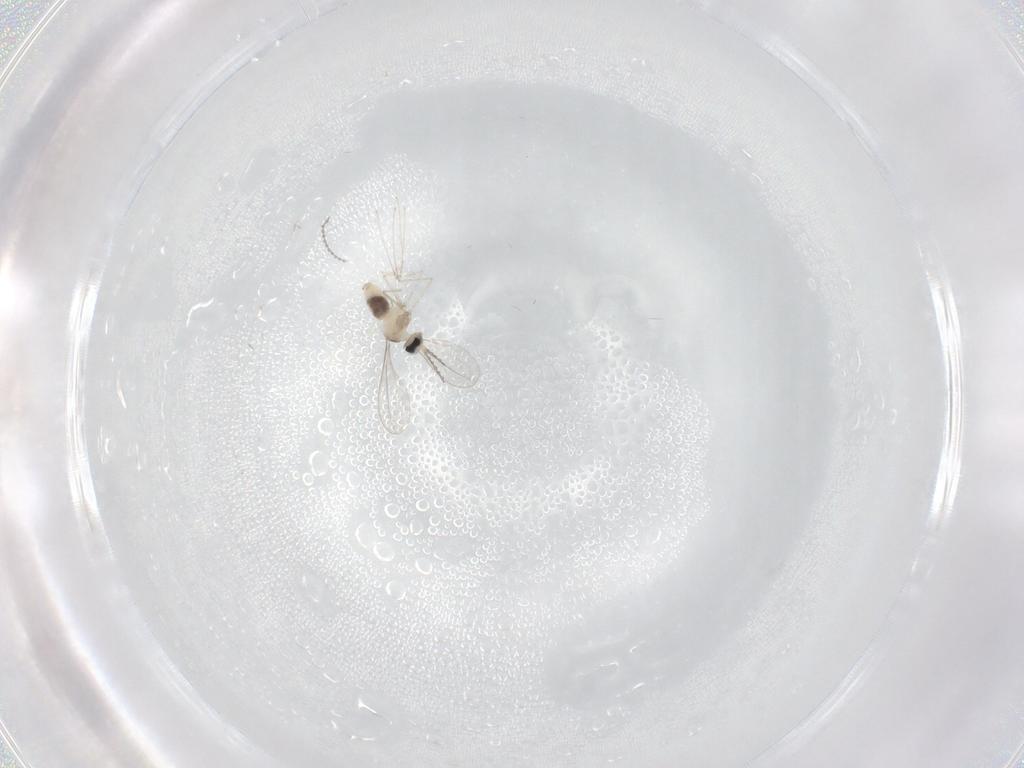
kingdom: Animalia
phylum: Arthropoda
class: Insecta
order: Diptera
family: Cecidomyiidae
